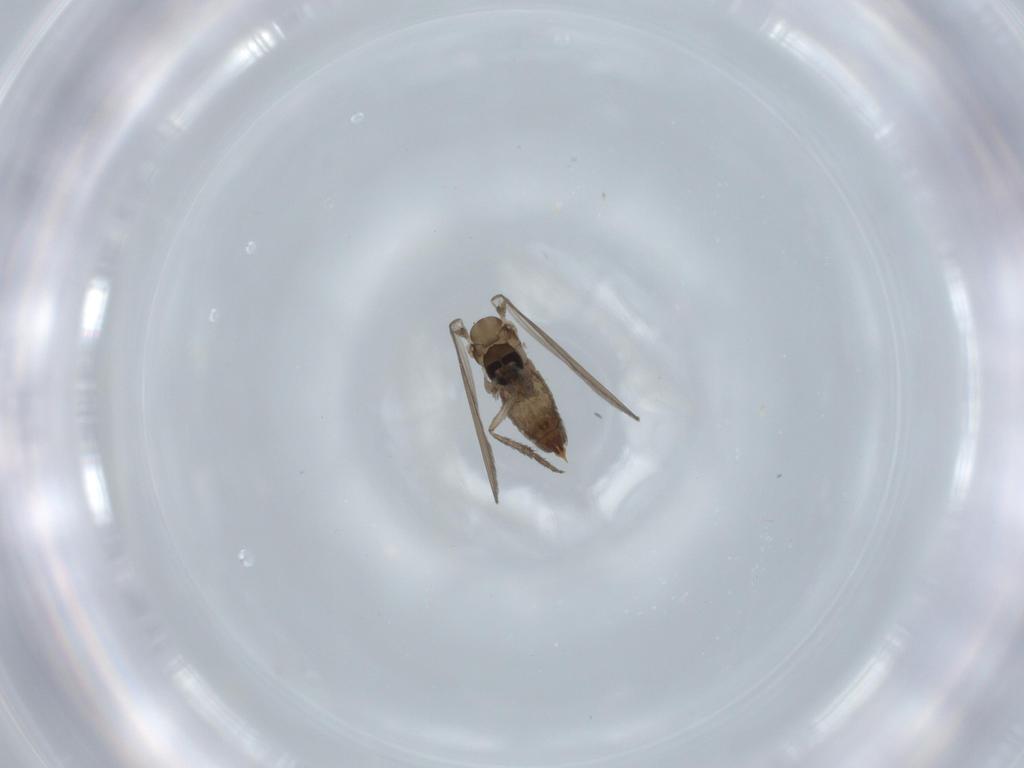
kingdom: Animalia
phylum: Arthropoda
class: Insecta
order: Diptera
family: Psychodidae
